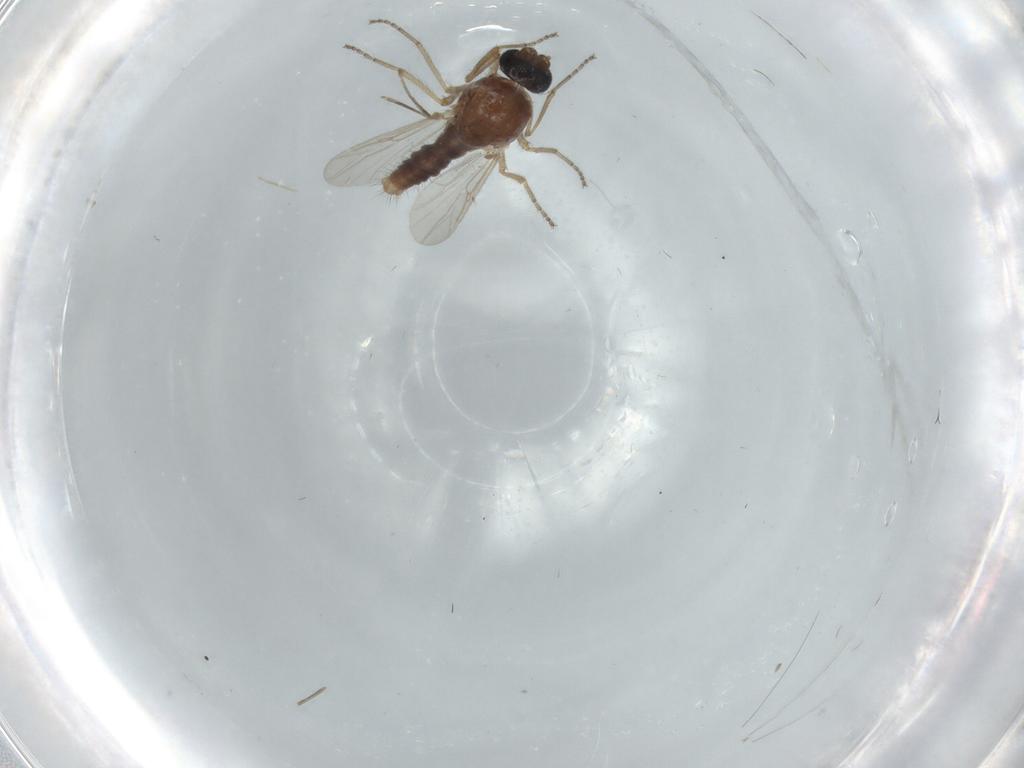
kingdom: Animalia
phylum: Arthropoda
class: Insecta
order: Diptera
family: Ceratopogonidae
